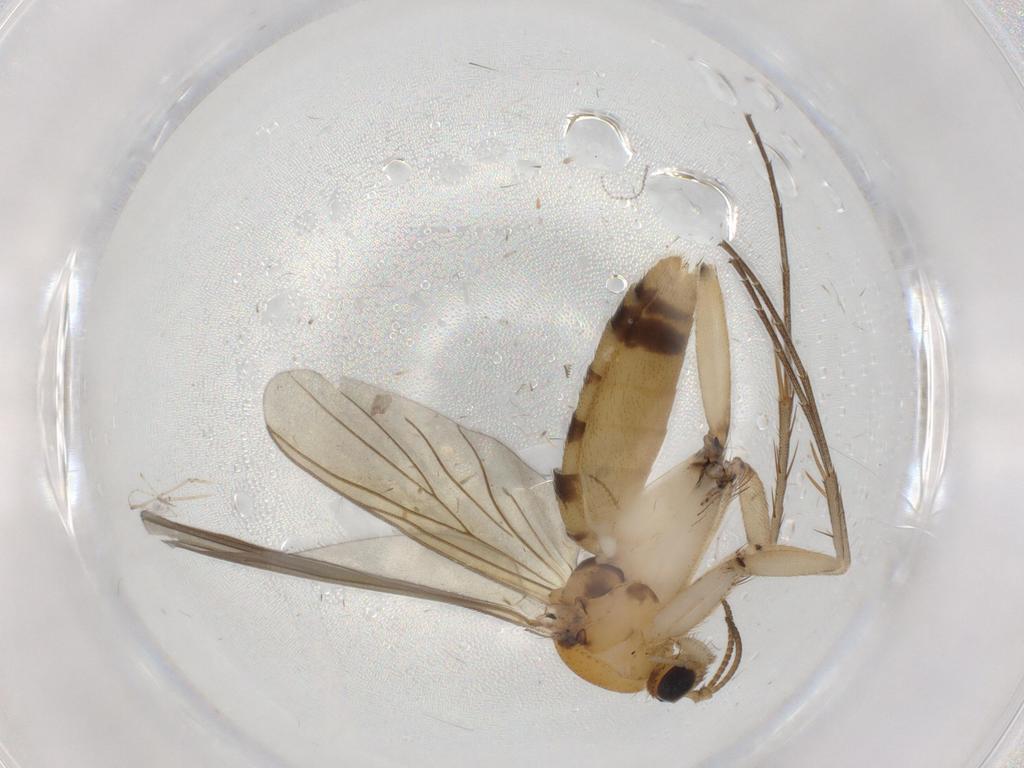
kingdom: Animalia
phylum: Arthropoda
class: Insecta
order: Diptera
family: Mycetophilidae
